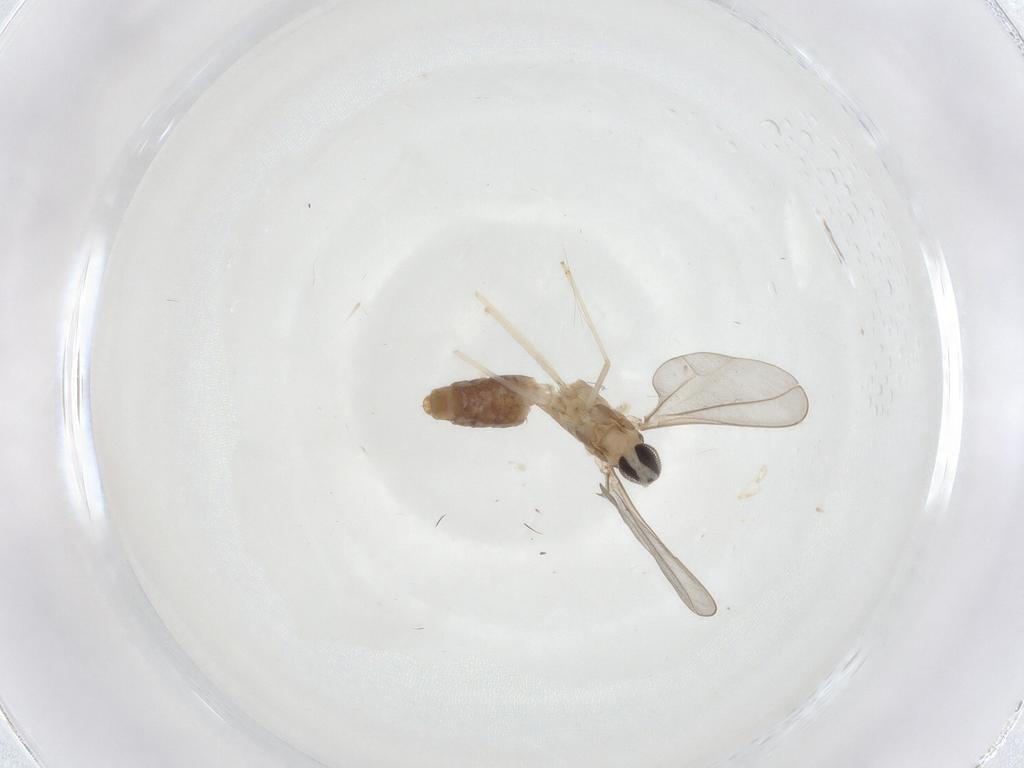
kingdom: Animalia
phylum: Arthropoda
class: Insecta
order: Diptera
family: Cecidomyiidae
